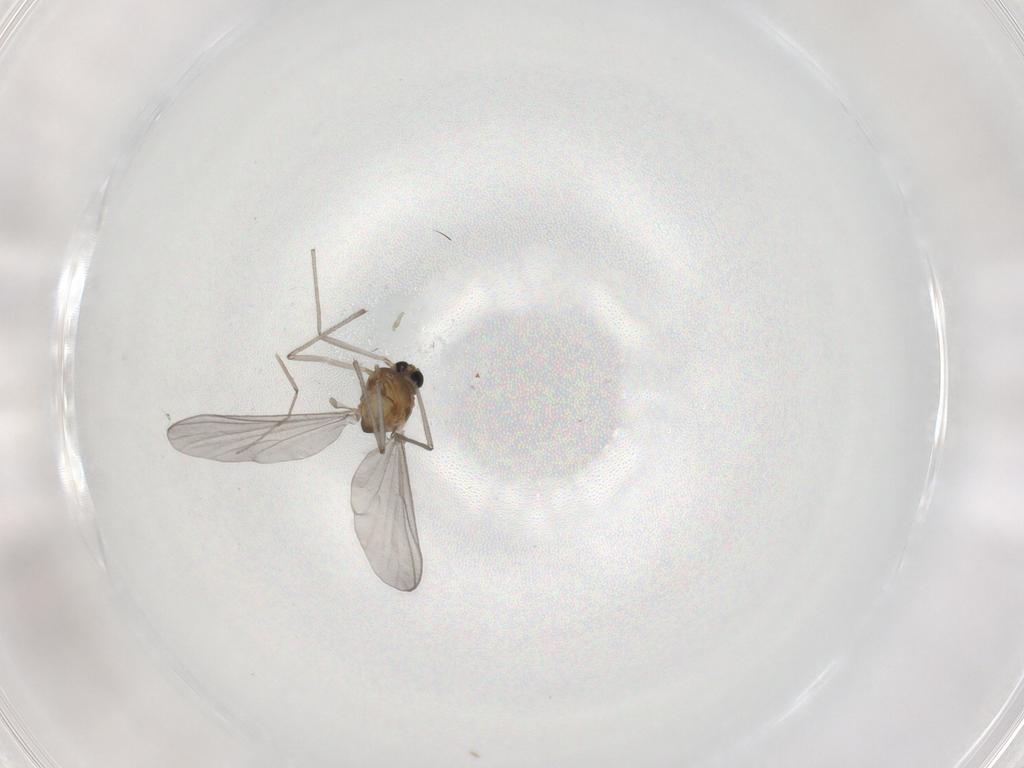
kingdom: Animalia
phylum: Arthropoda
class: Insecta
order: Diptera
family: Chironomidae
